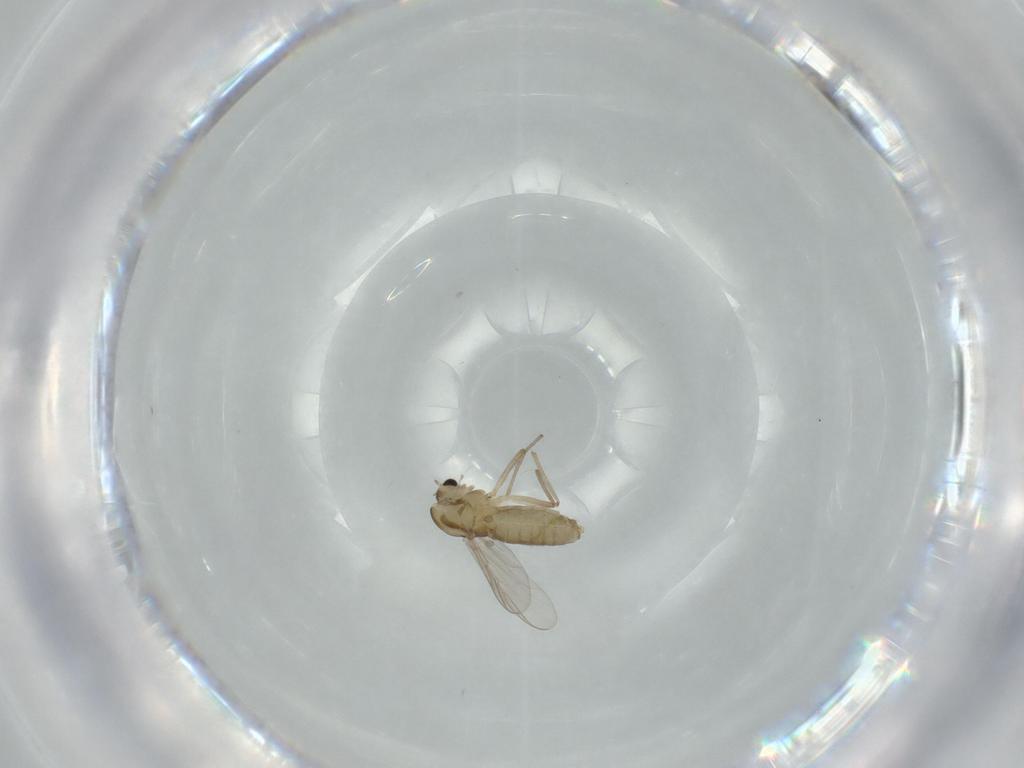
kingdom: Animalia
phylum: Arthropoda
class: Insecta
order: Diptera
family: Chironomidae
